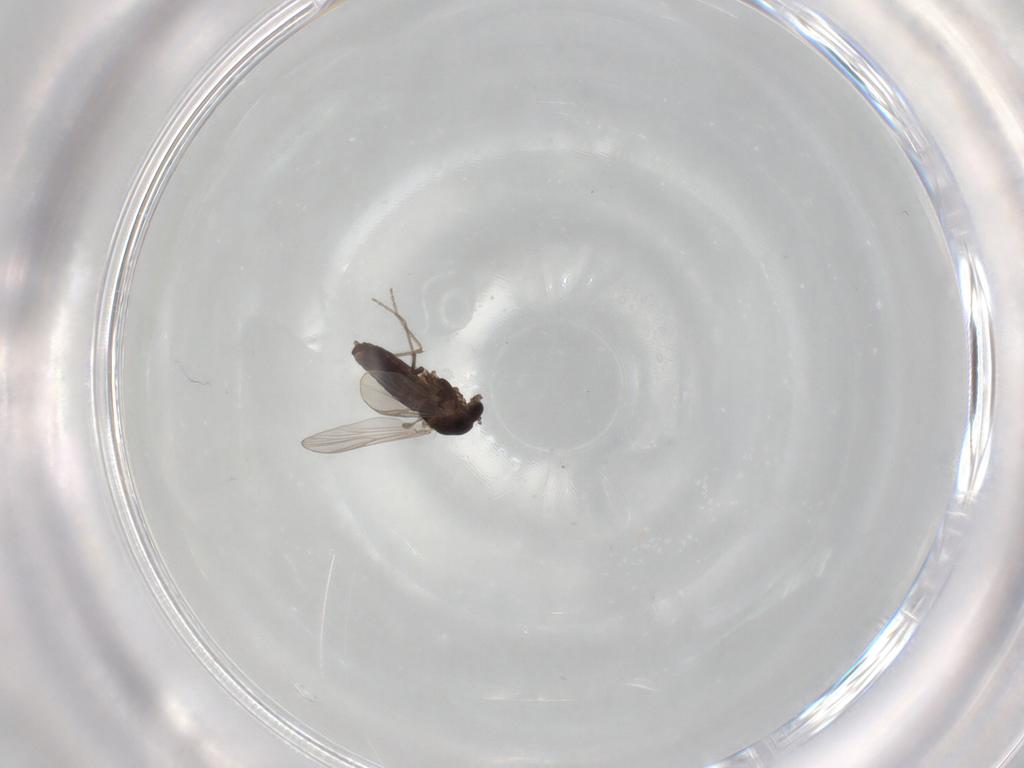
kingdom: Animalia
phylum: Arthropoda
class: Insecta
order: Diptera
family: Chironomidae
